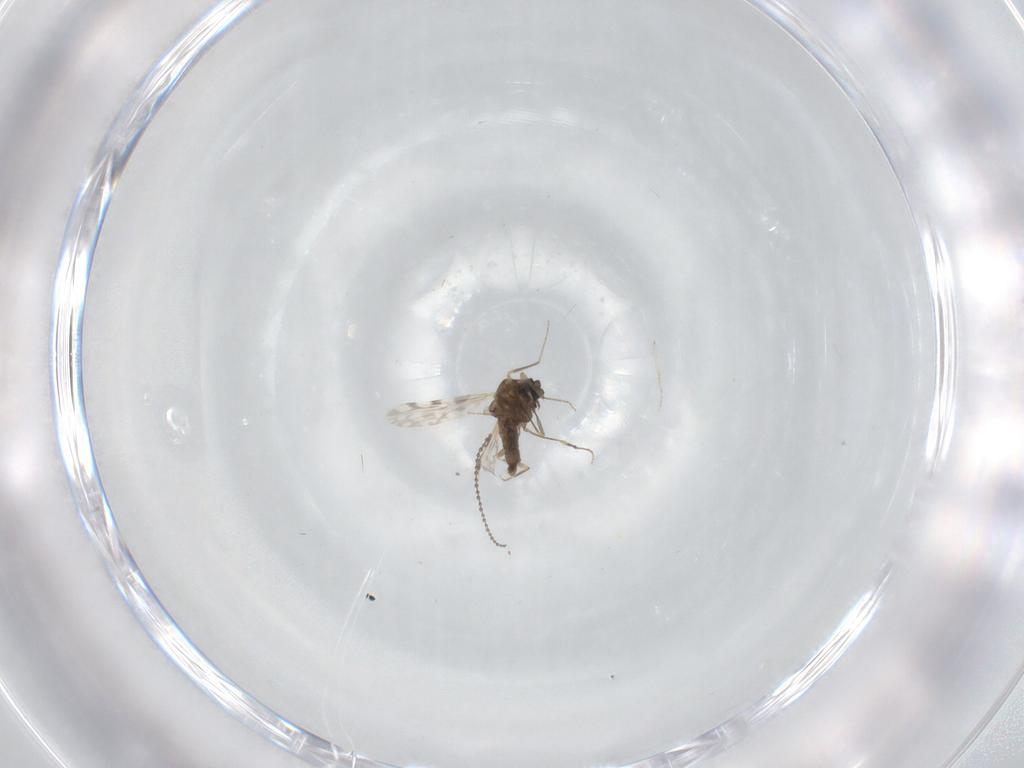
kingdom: Animalia
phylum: Arthropoda
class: Insecta
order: Diptera
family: Ceratopogonidae
